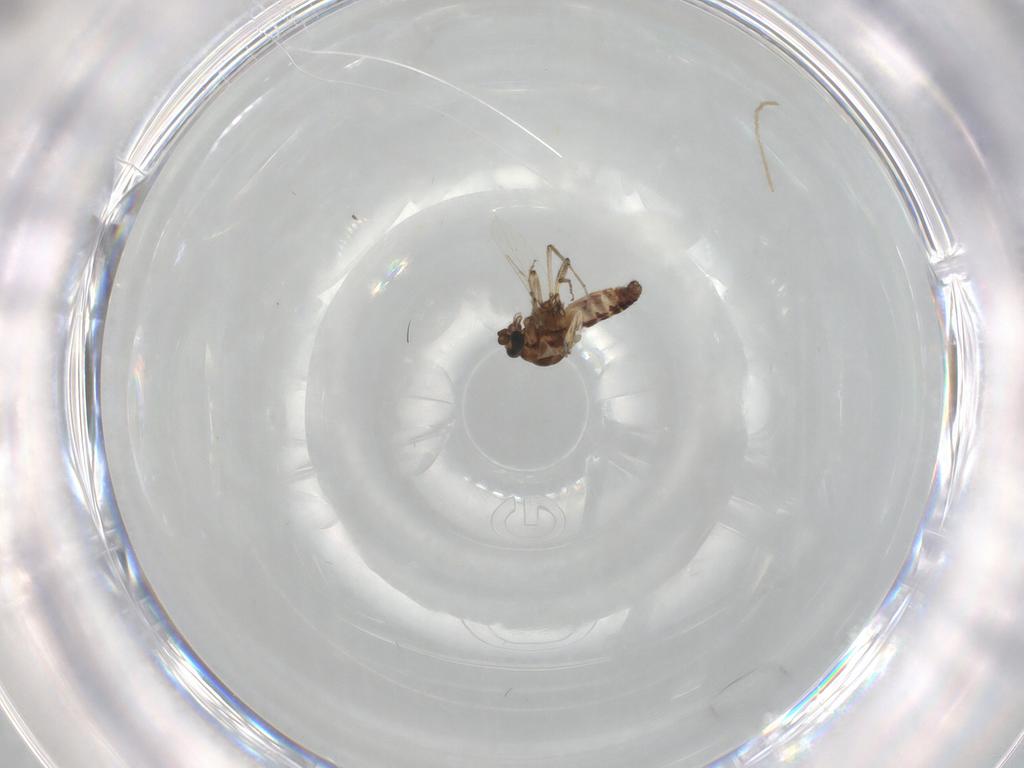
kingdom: Animalia
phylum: Arthropoda
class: Insecta
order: Diptera
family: Ceratopogonidae
